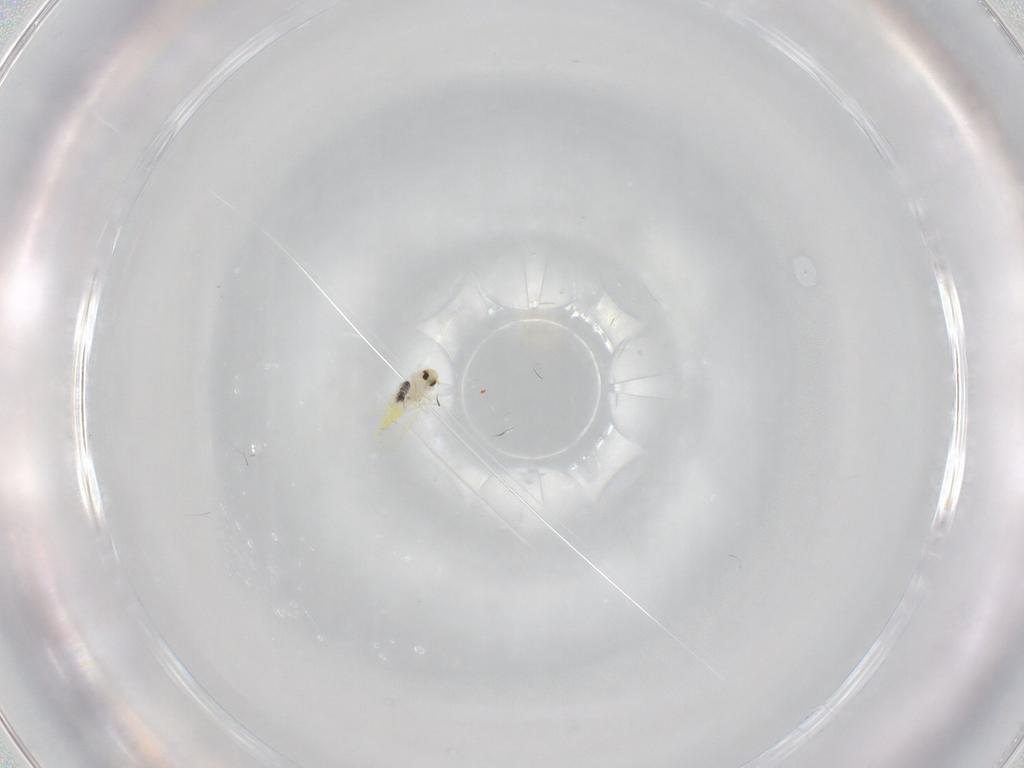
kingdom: Animalia
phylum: Arthropoda
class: Insecta
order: Hemiptera
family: Aleyrodidae
